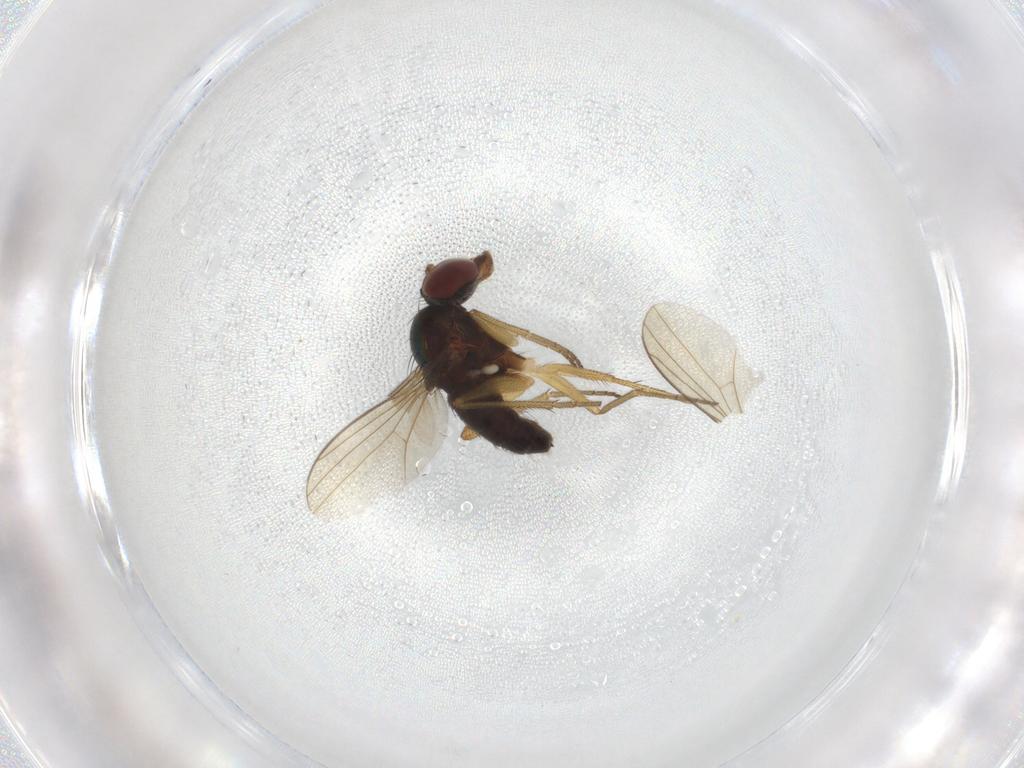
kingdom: Animalia
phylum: Arthropoda
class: Insecta
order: Diptera
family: Dolichopodidae
